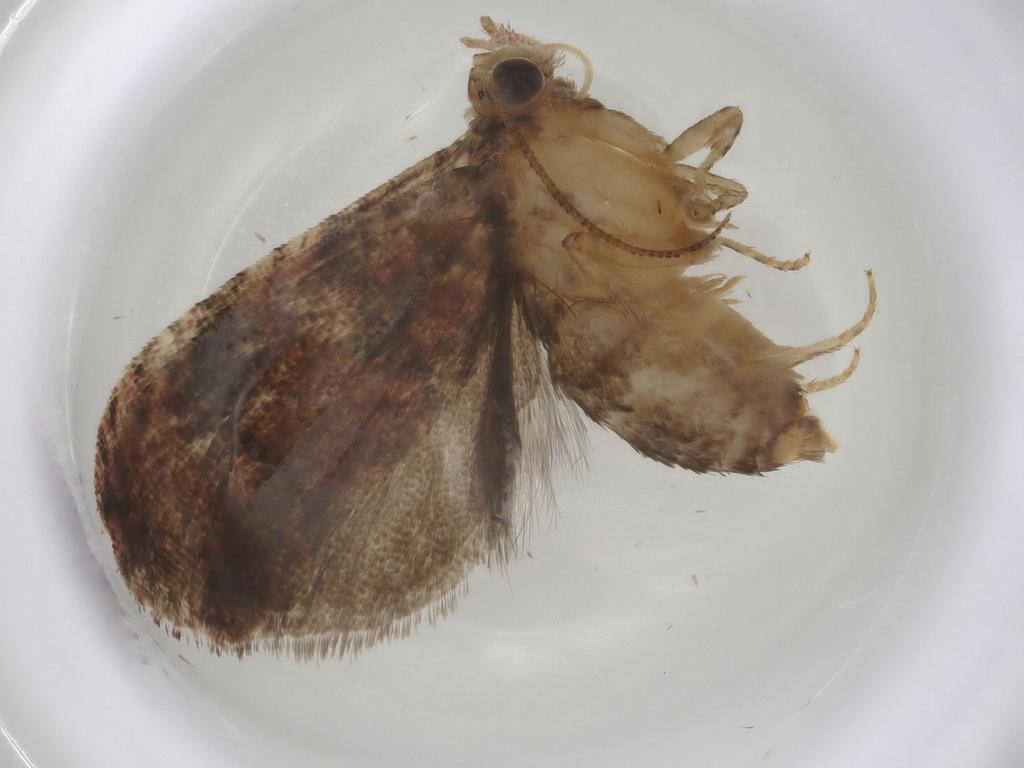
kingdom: Animalia
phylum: Arthropoda
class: Insecta
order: Lepidoptera
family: Tortricidae
